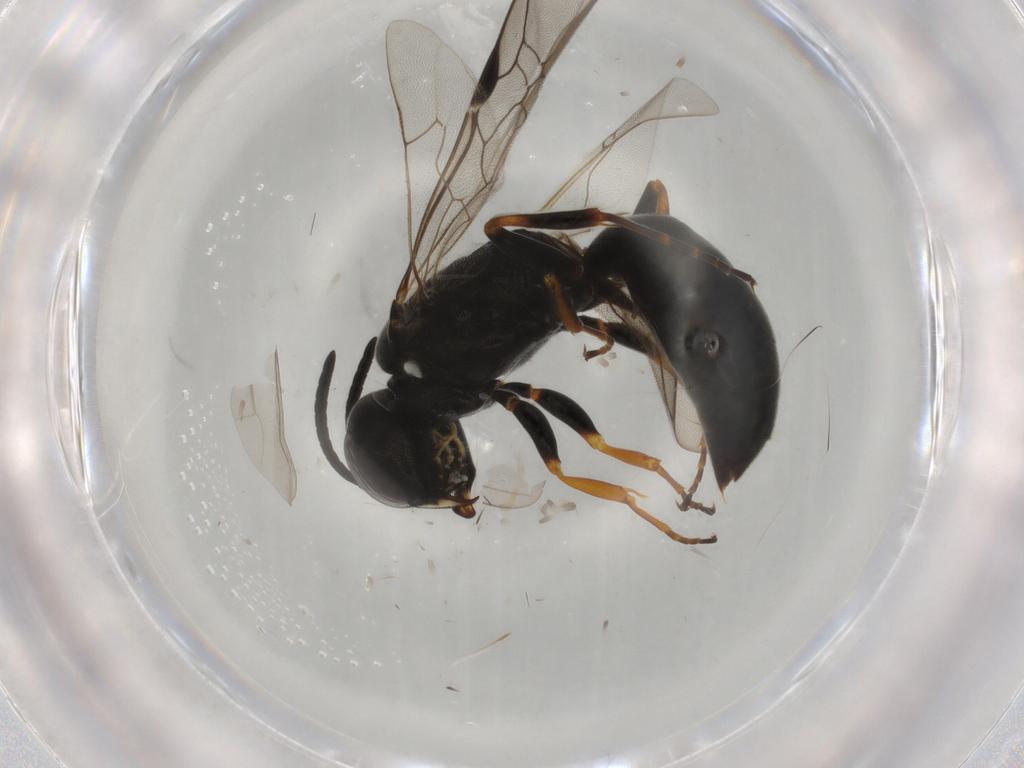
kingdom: Animalia
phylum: Arthropoda
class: Insecta
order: Hymenoptera
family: Crabronidae
